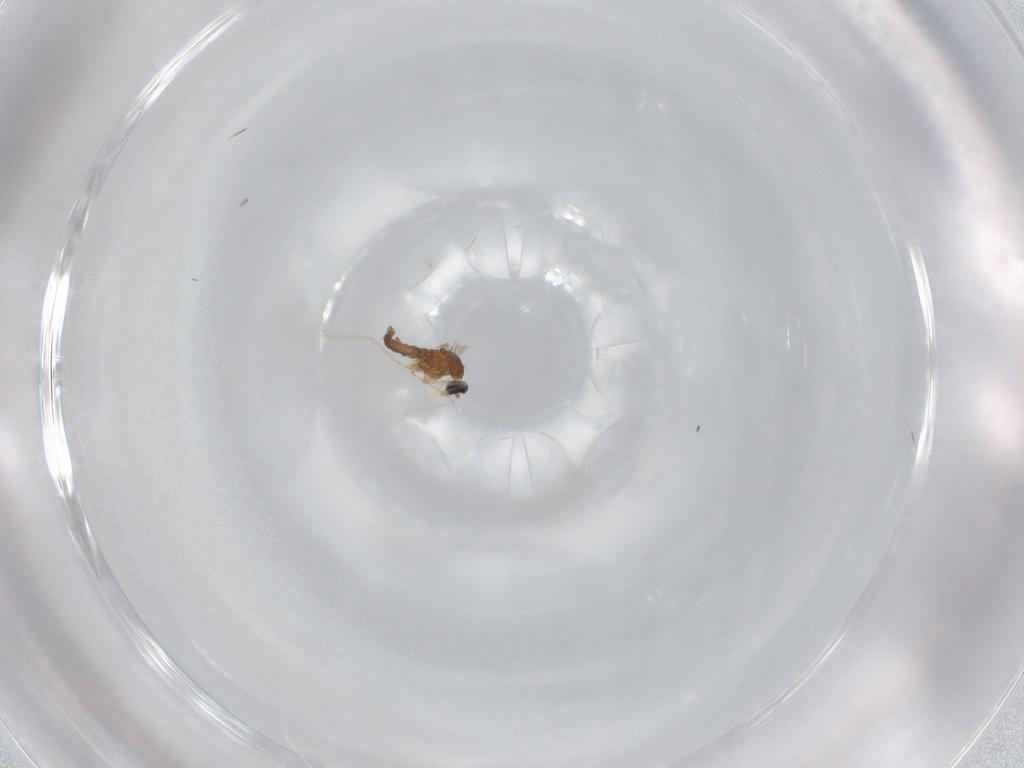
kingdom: Animalia
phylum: Arthropoda
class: Insecta
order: Diptera
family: Cecidomyiidae
